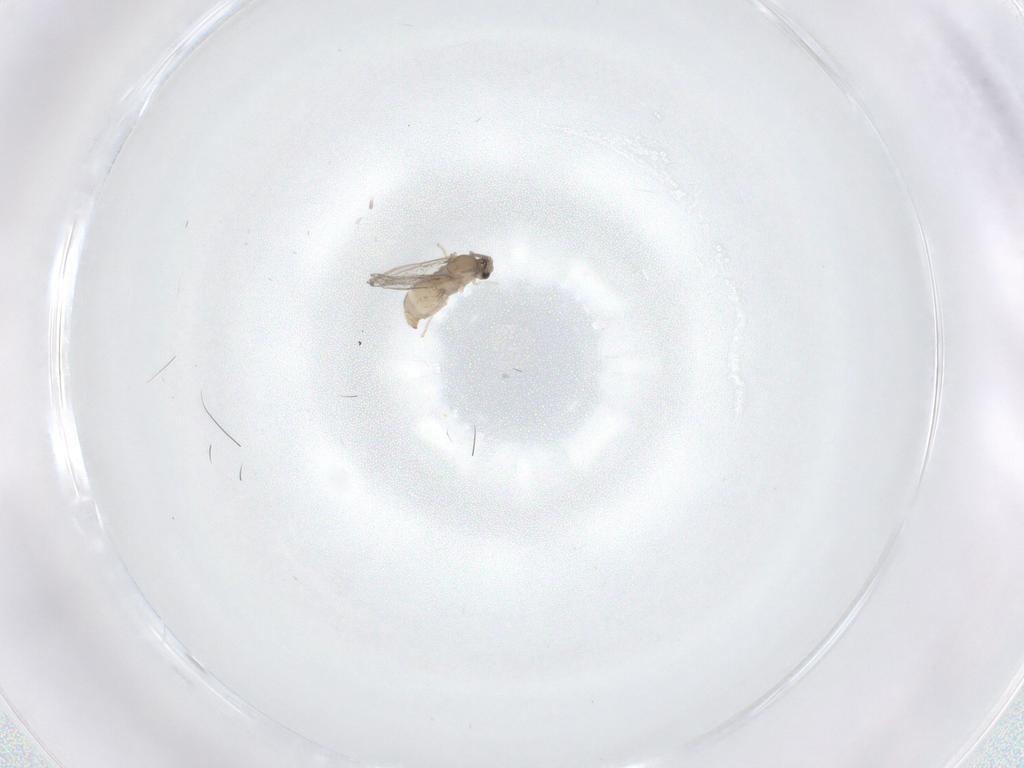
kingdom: Animalia
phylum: Arthropoda
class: Insecta
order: Diptera
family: Cecidomyiidae
